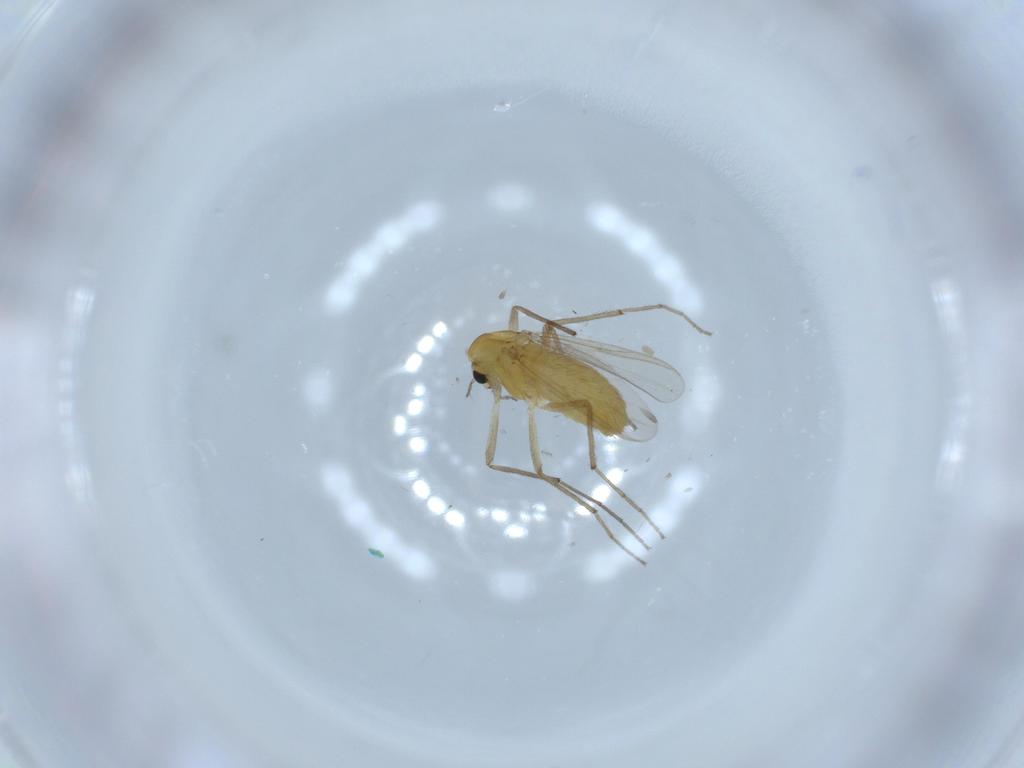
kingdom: Animalia
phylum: Arthropoda
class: Insecta
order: Diptera
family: Chironomidae
